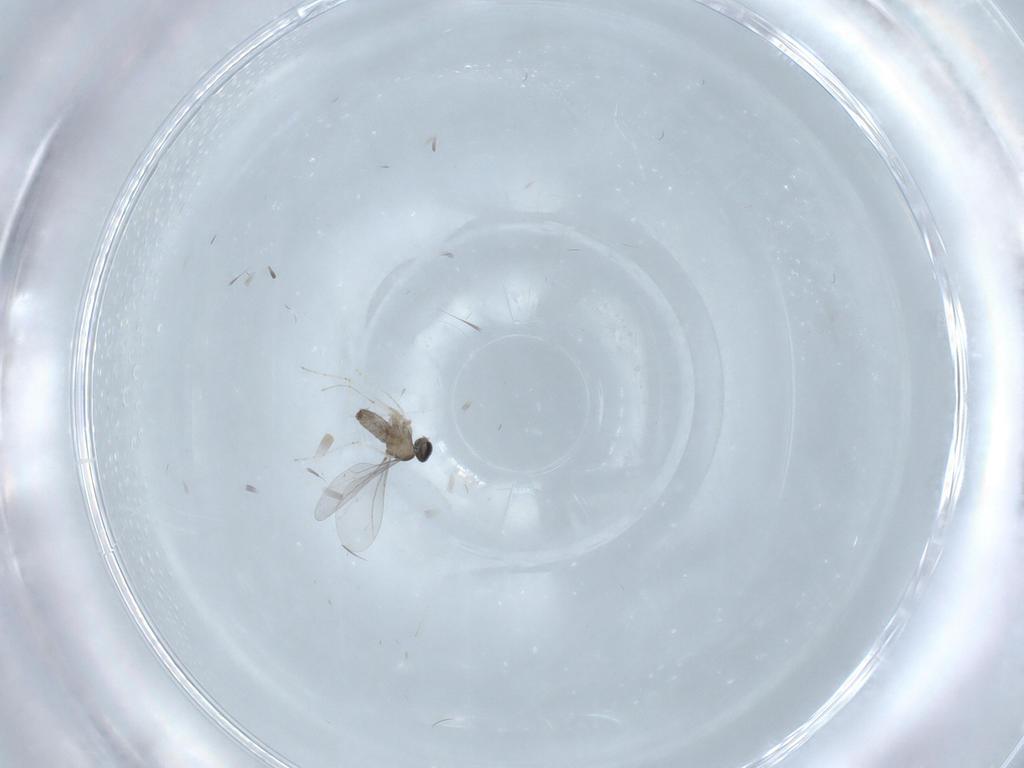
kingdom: Animalia
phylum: Arthropoda
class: Insecta
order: Diptera
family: Cecidomyiidae
